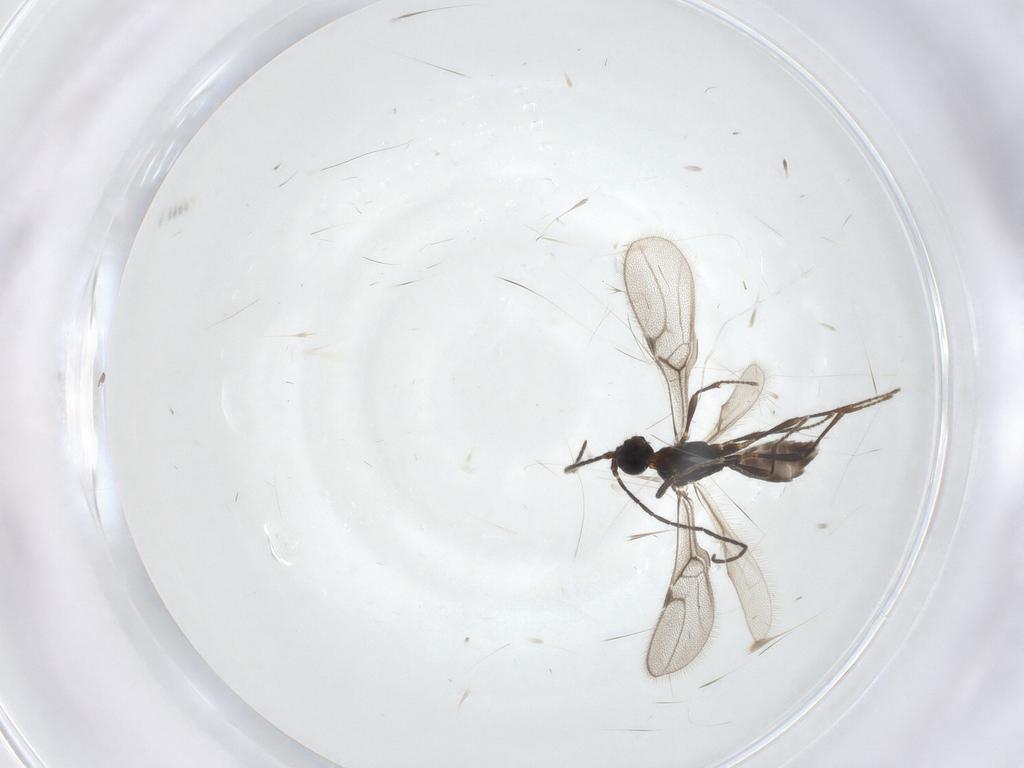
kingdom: Animalia
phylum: Arthropoda
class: Insecta
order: Hymenoptera
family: Braconidae
